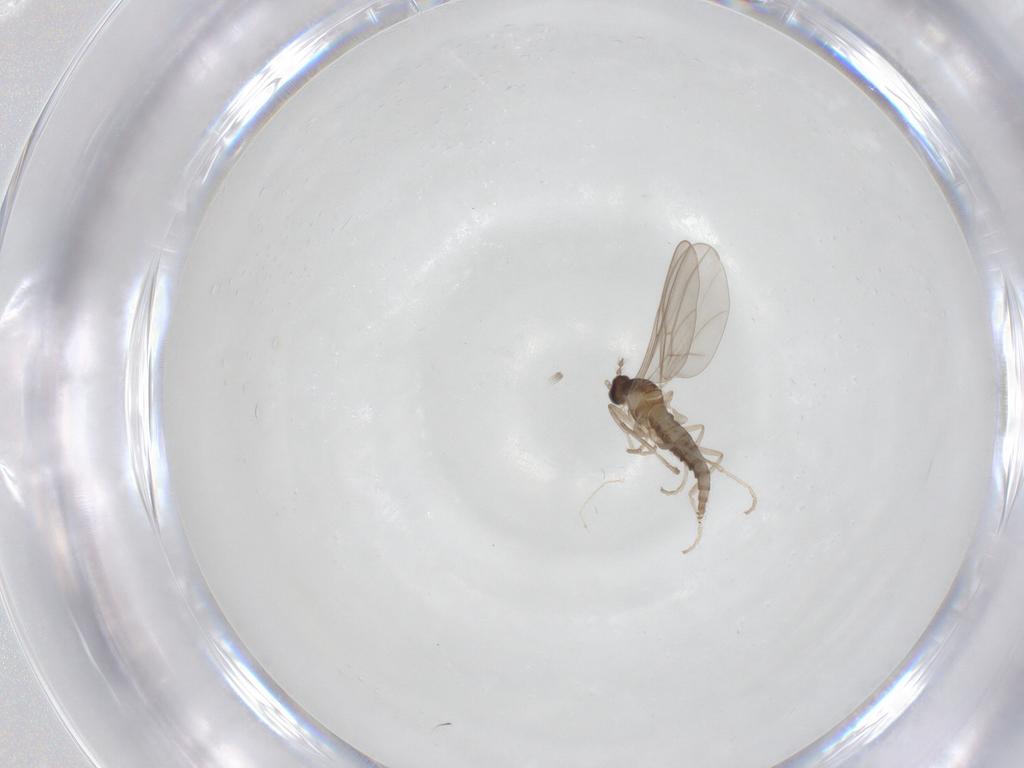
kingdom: Animalia
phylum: Arthropoda
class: Insecta
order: Diptera
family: Cecidomyiidae
